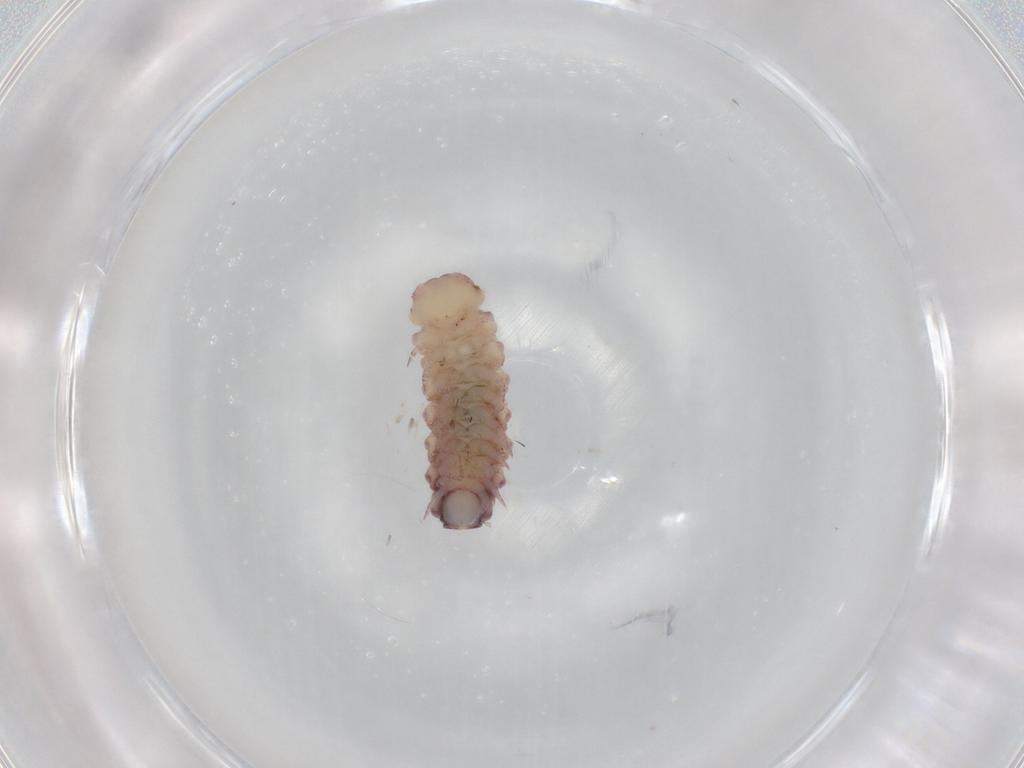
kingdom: Animalia
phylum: Arthropoda
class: Diplopoda
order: Polyxenida
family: Polyxenidae
